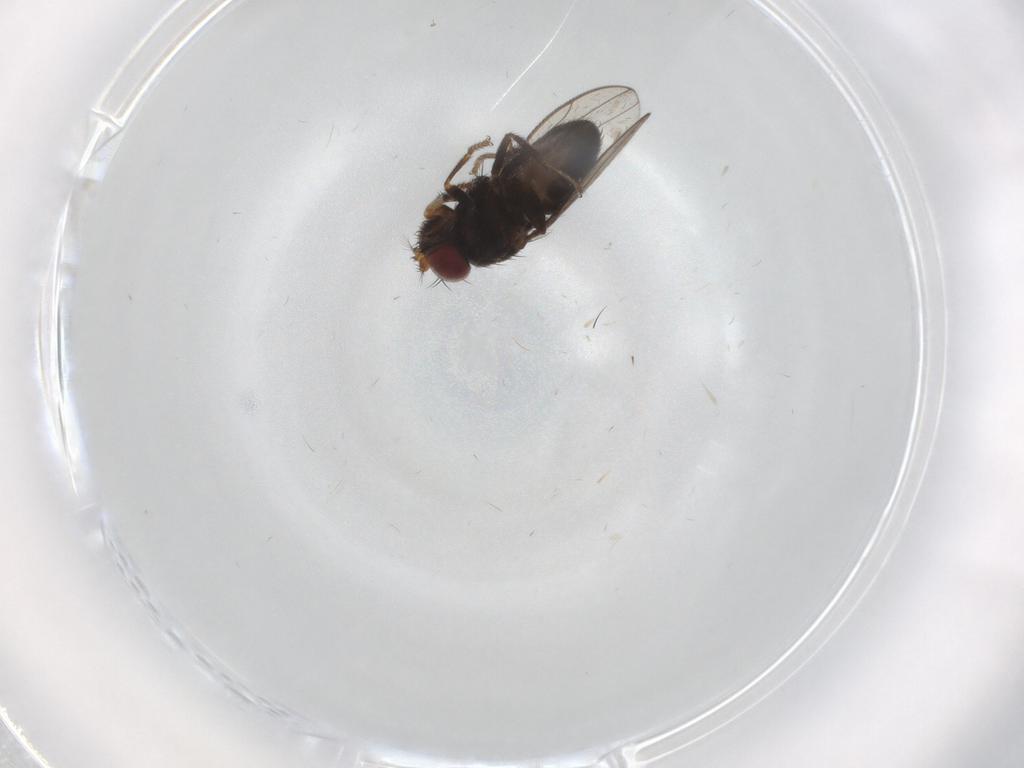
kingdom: Animalia
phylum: Arthropoda
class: Insecta
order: Diptera
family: Ephydridae
